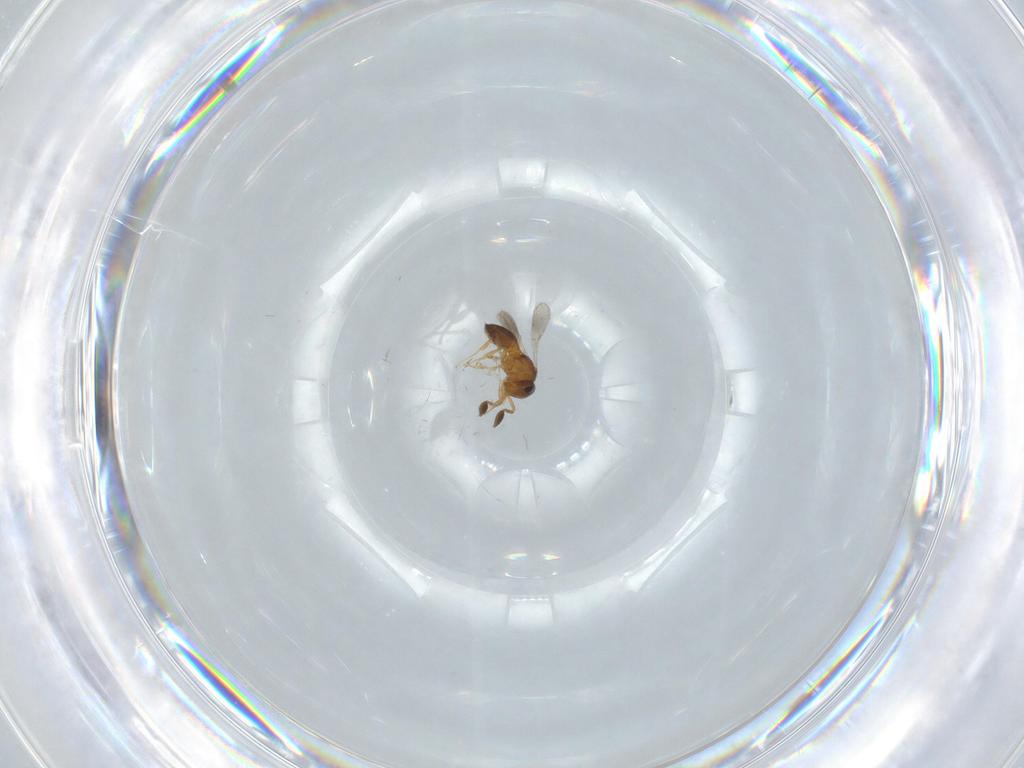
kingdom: Animalia
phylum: Arthropoda
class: Insecta
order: Hymenoptera
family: Scelionidae
